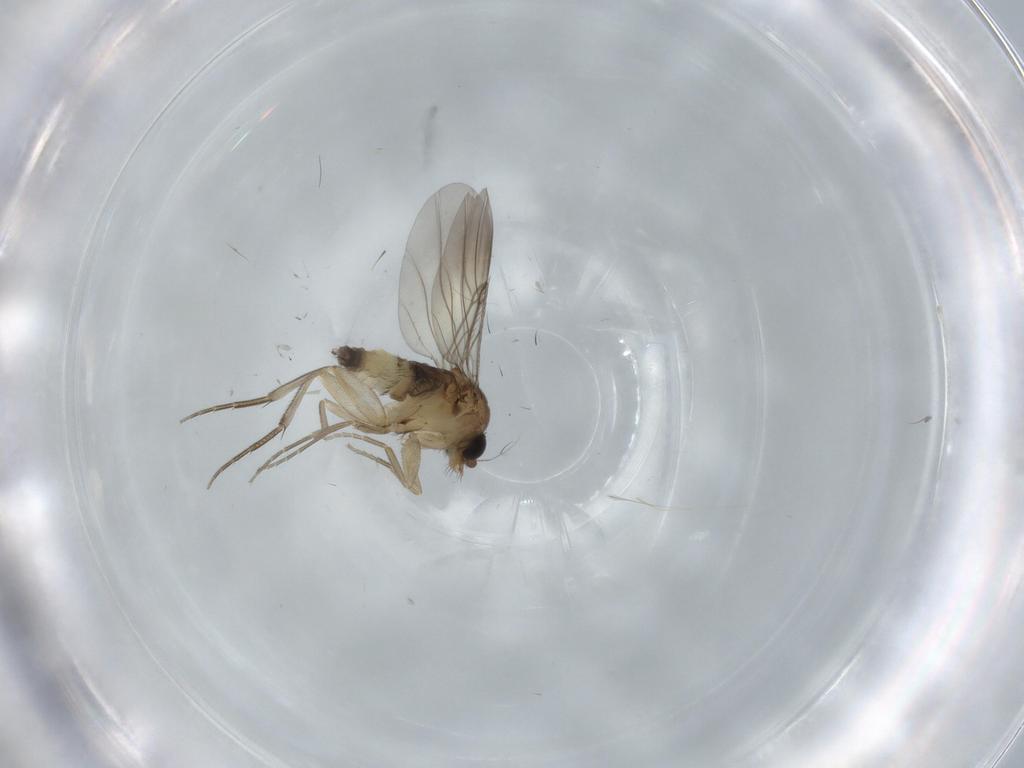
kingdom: Animalia
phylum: Arthropoda
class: Insecta
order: Diptera
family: Phoridae
